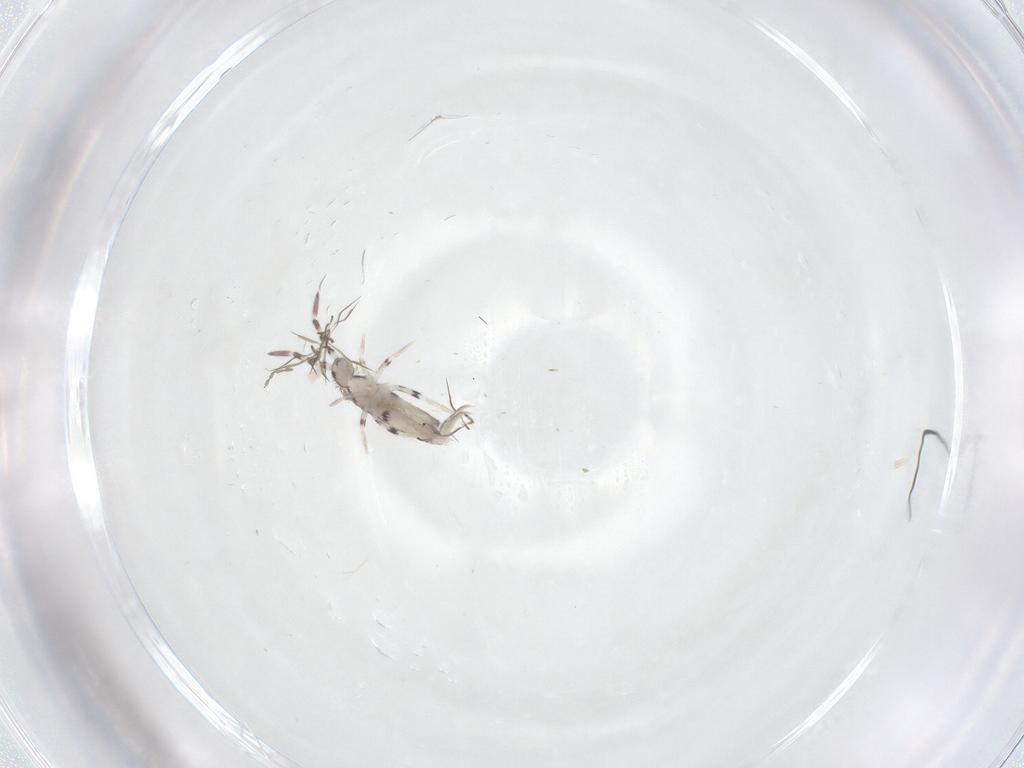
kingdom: Animalia
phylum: Arthropoda
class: Collembola
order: Entomobryomorpha
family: Entomobryidae
